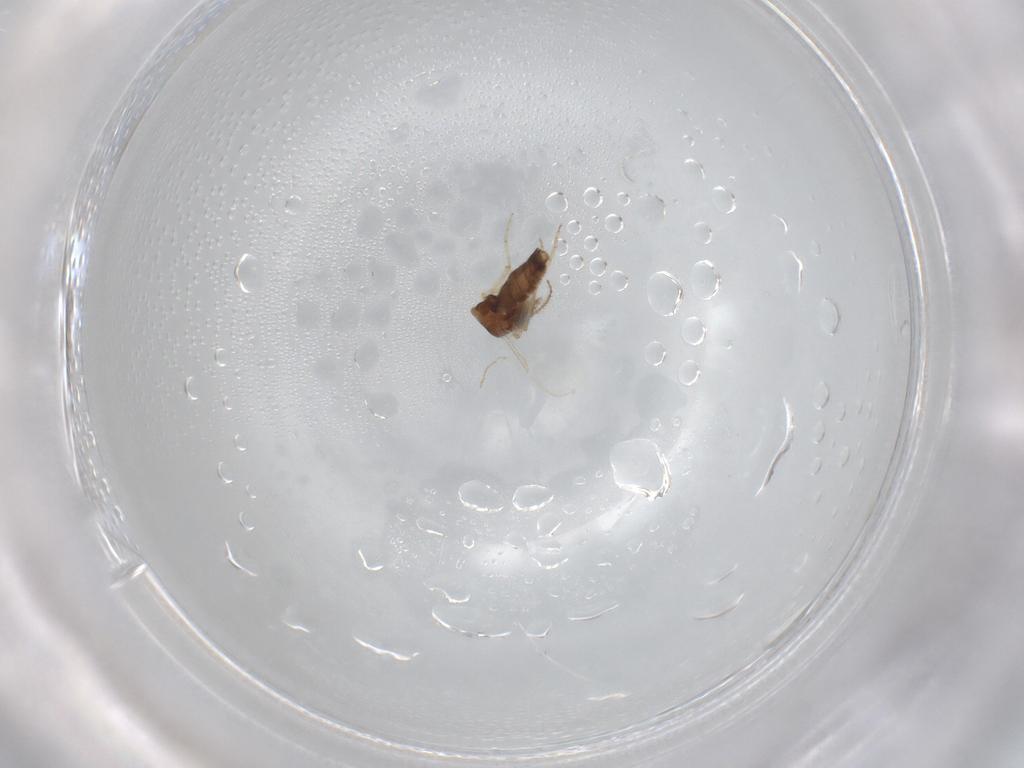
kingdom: Animalia
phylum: Arthropoda
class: Insecta
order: Diptera
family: Ceratopogonidae
